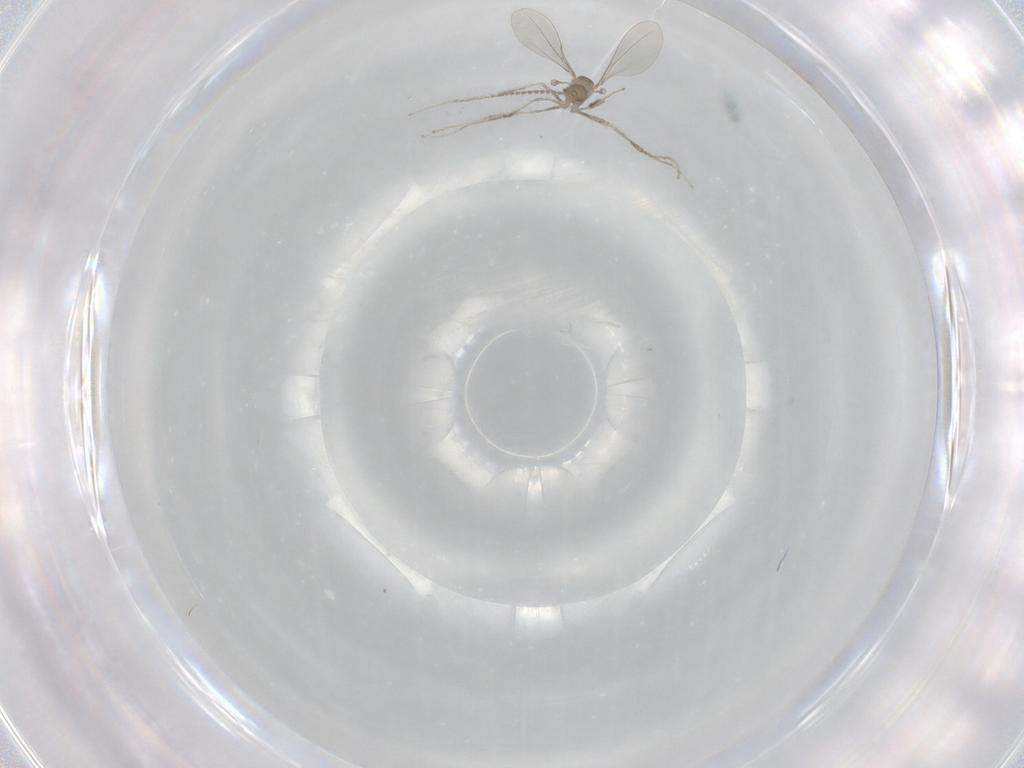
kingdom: Animalia
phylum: Arthropoda
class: Insecta
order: Diptera
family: Cecidomyiidae
